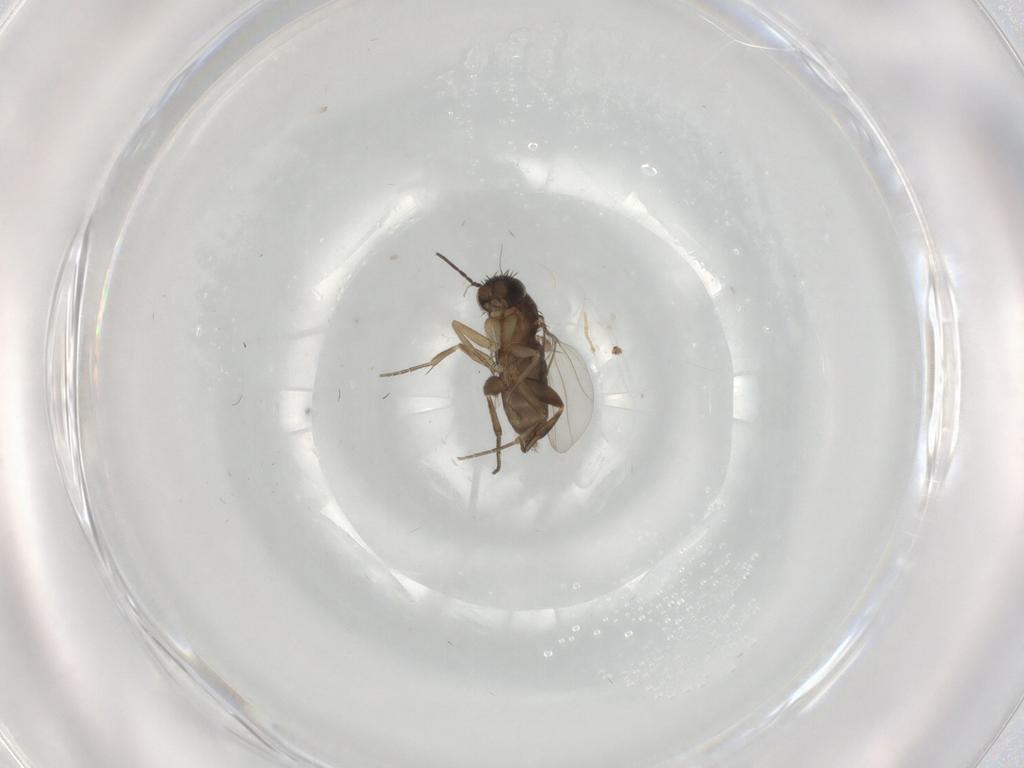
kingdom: Animalia
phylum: Arthropoda
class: Insecta
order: Diptera
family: Phoridae
